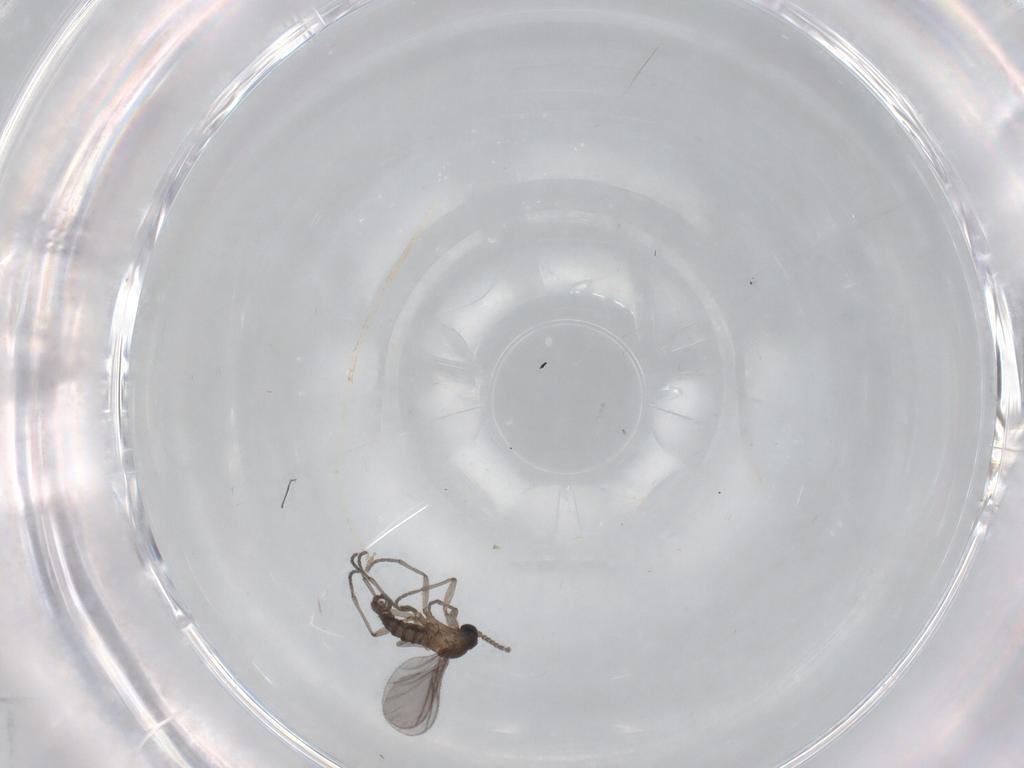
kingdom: Animalia
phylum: Arthropoda
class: Insecta
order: Diptera
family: Sciaridae
